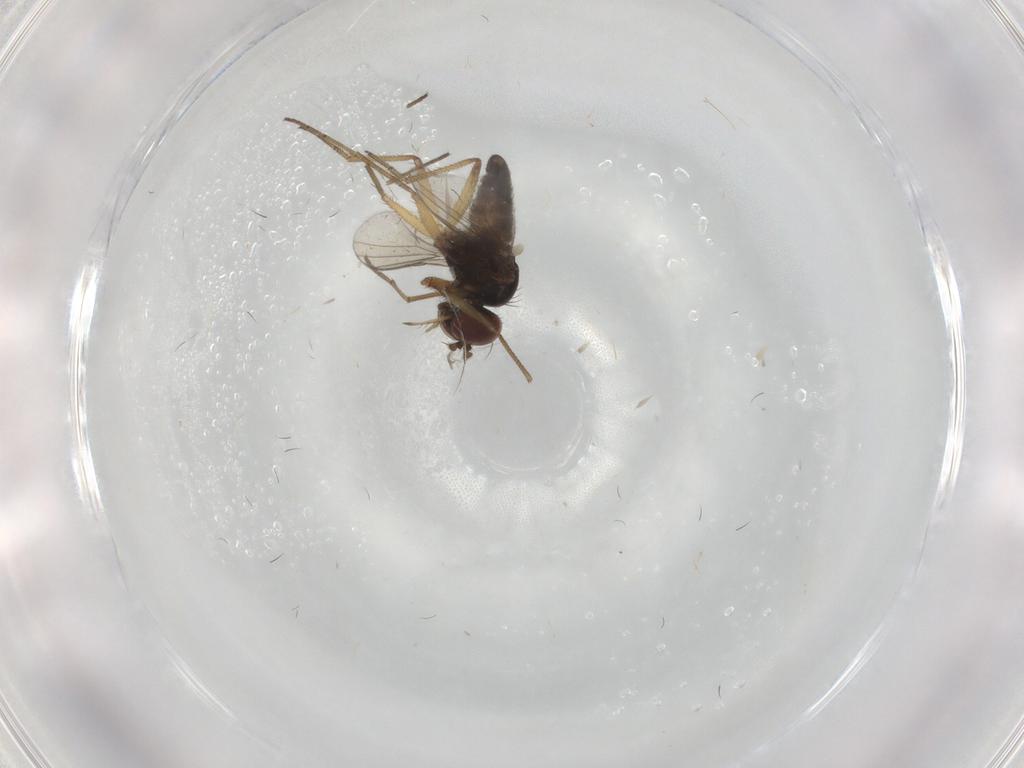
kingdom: Animalia
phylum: Arthropoda
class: Insecta
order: Diptera
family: Dolichopodidae
